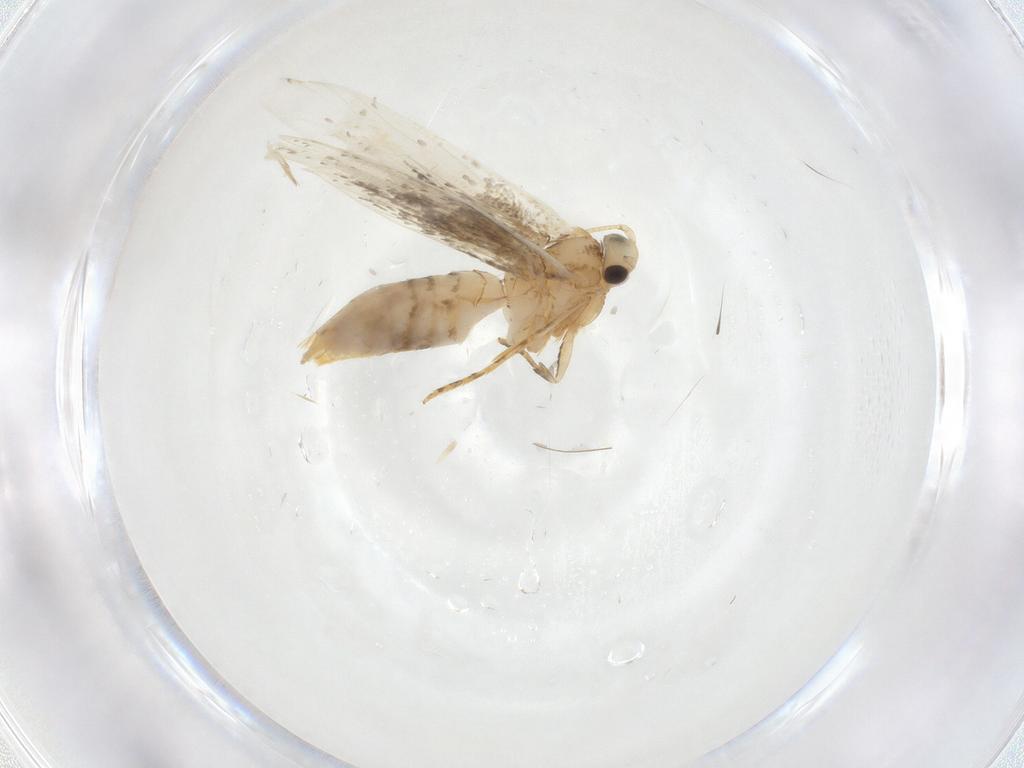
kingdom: Animalia
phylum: Arthropoda
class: Insecta
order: Lepidoptera
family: Tineidae
